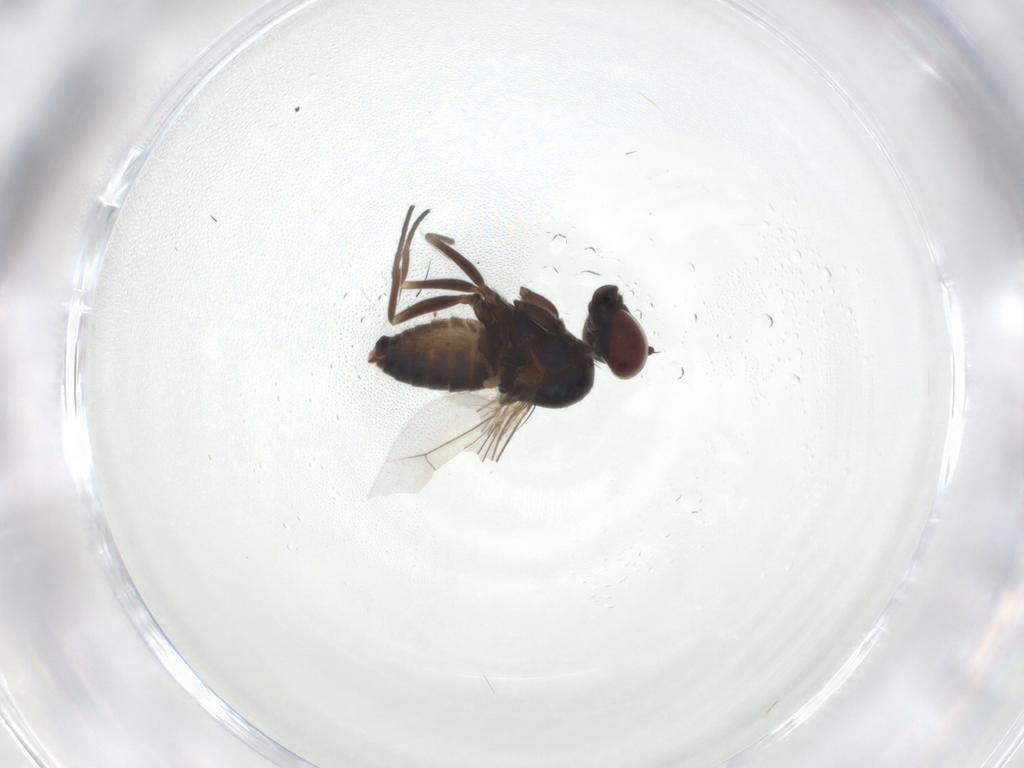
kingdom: Animalia
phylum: Arthropoda
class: Insecta
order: Diptera
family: Dolichopodidae
